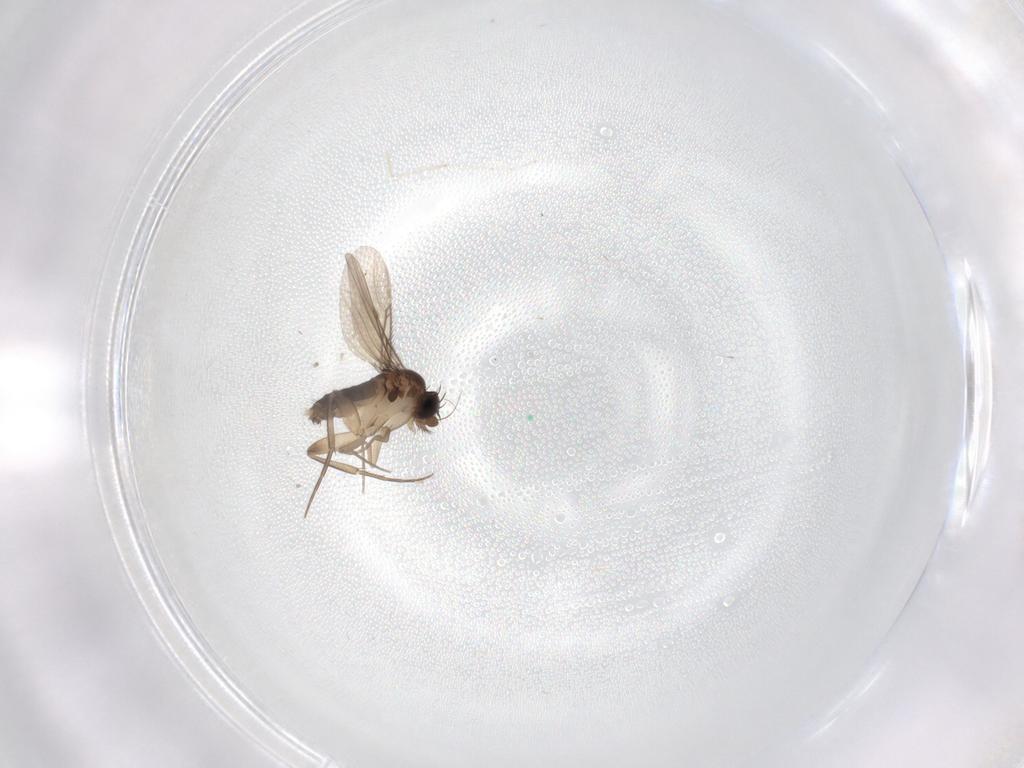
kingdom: Animalia
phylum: Arthropoda
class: Insecta
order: Diptera
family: Phoridae
